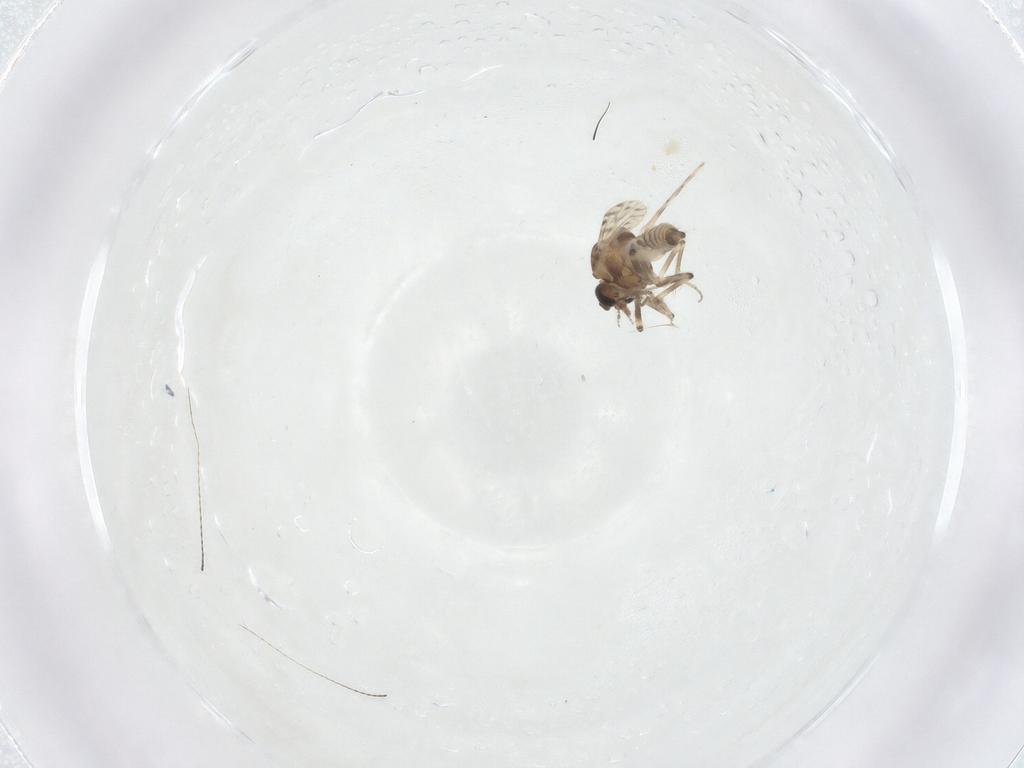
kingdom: Animalia
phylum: Arthropoda
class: Insecta
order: Diptera
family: Cecidomyiidae
